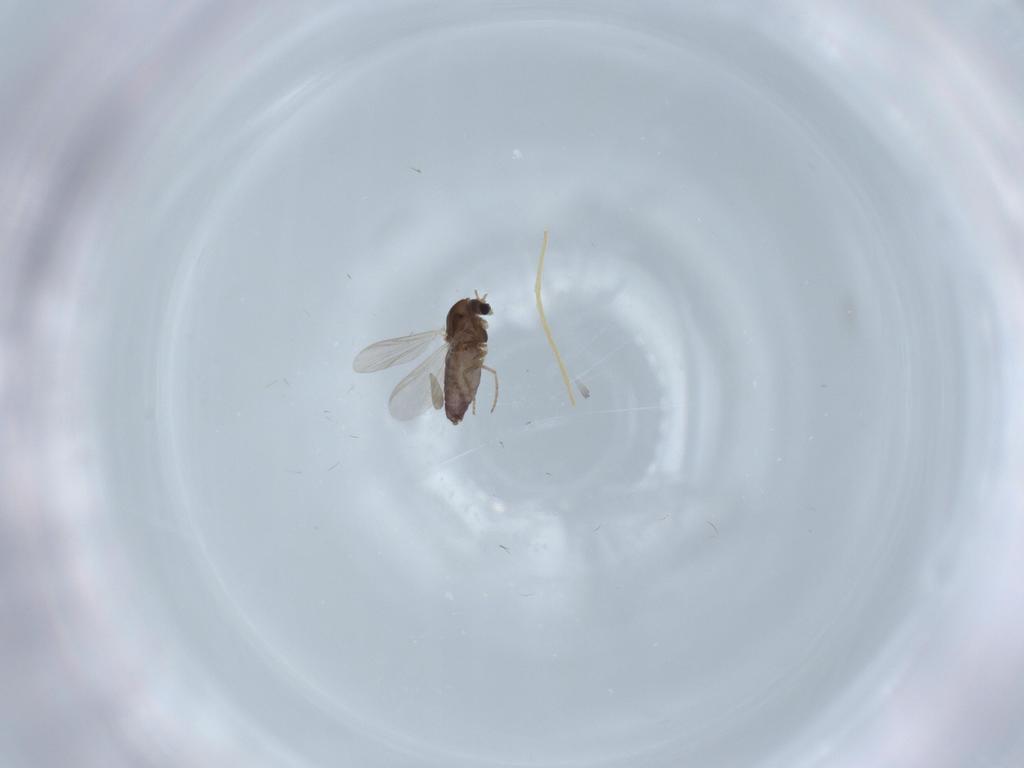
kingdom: Animalia
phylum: Arthropoda
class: Insecta
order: Diptera
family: Chironomidae
